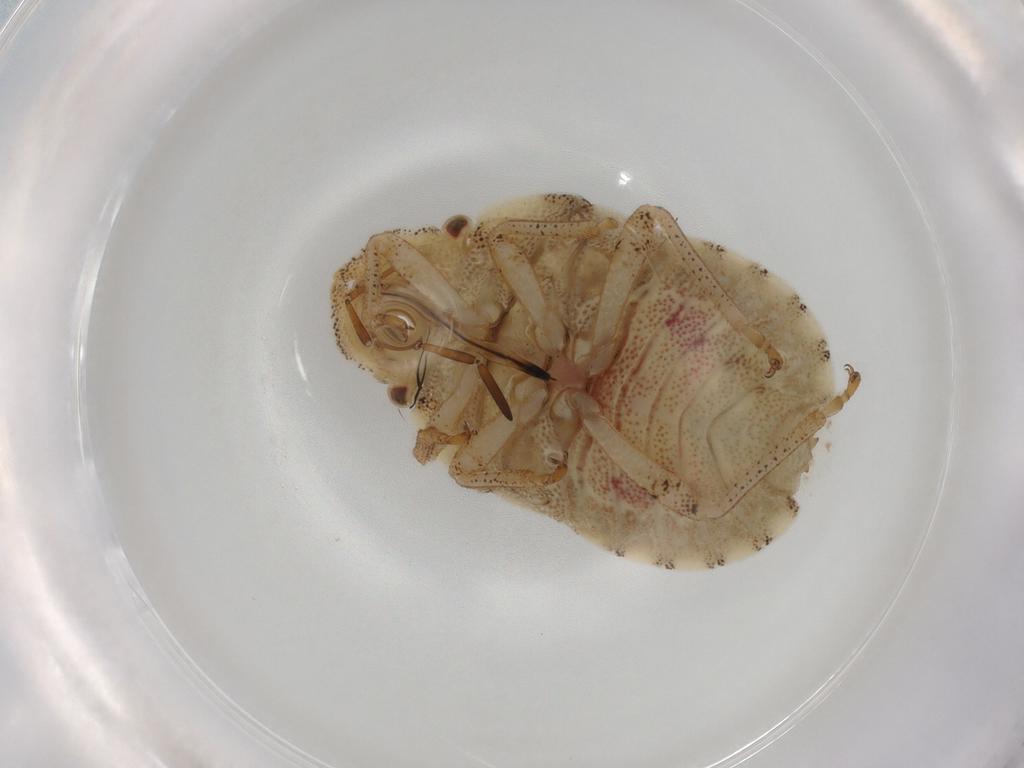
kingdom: Animalia
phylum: Arthropoda
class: Insecta
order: Hemiptera
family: Pentatomidae
